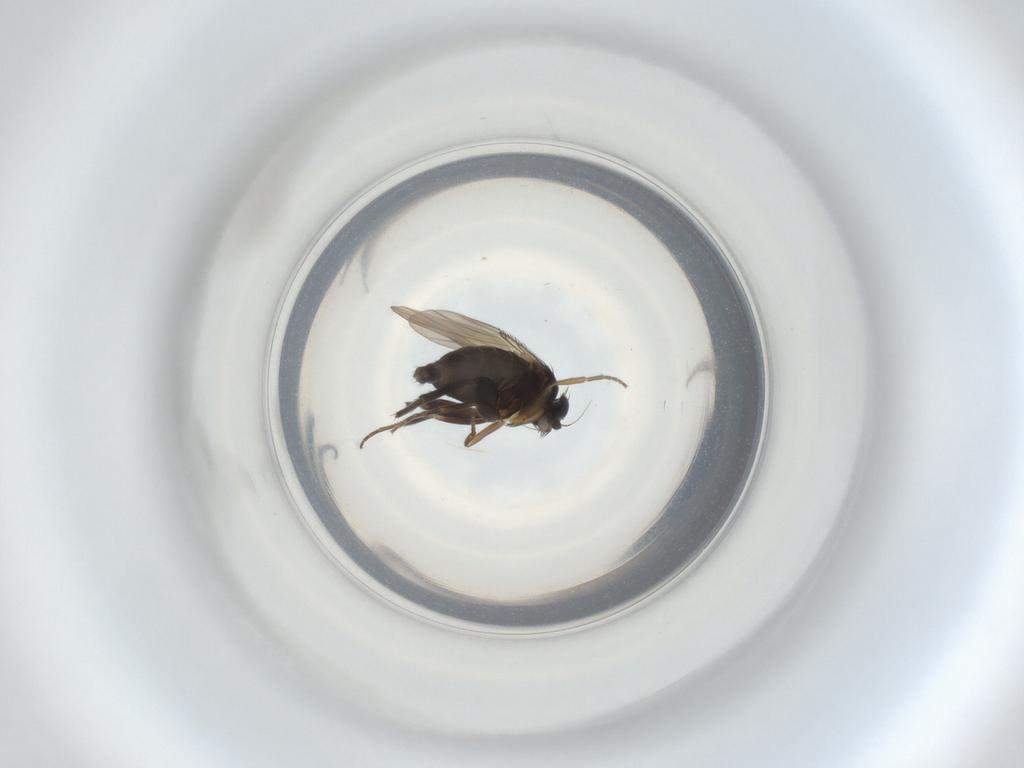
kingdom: Animalia
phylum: Arthropoda
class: Insecta
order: Diptera
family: Phoridae
